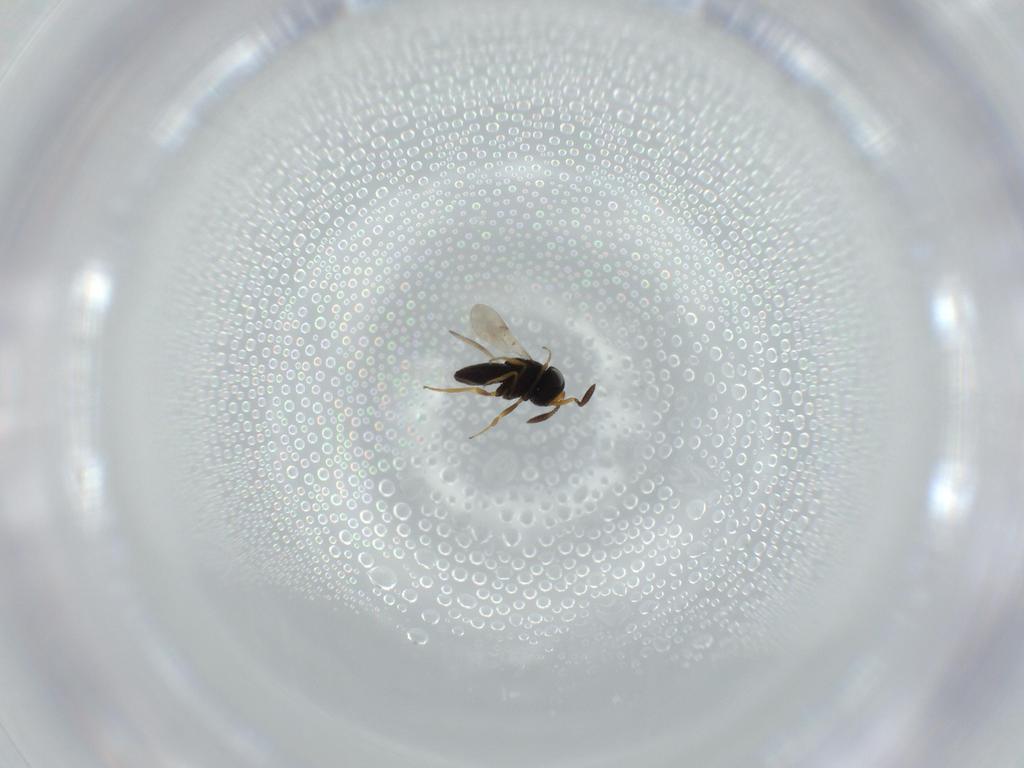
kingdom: Animalia
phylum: Arthropoda
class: Insecta
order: Hymenoptera
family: Scelionidae
